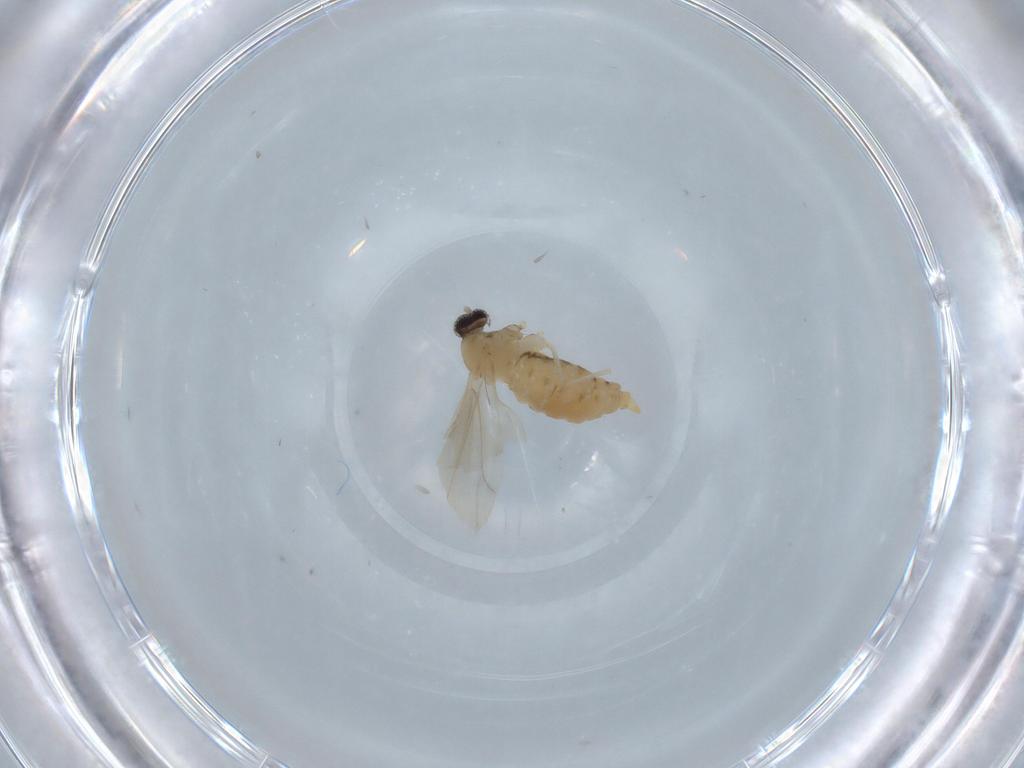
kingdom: Animalia
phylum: Arthropoda
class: Insecta
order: Diptera
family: Cecidomyiidae
